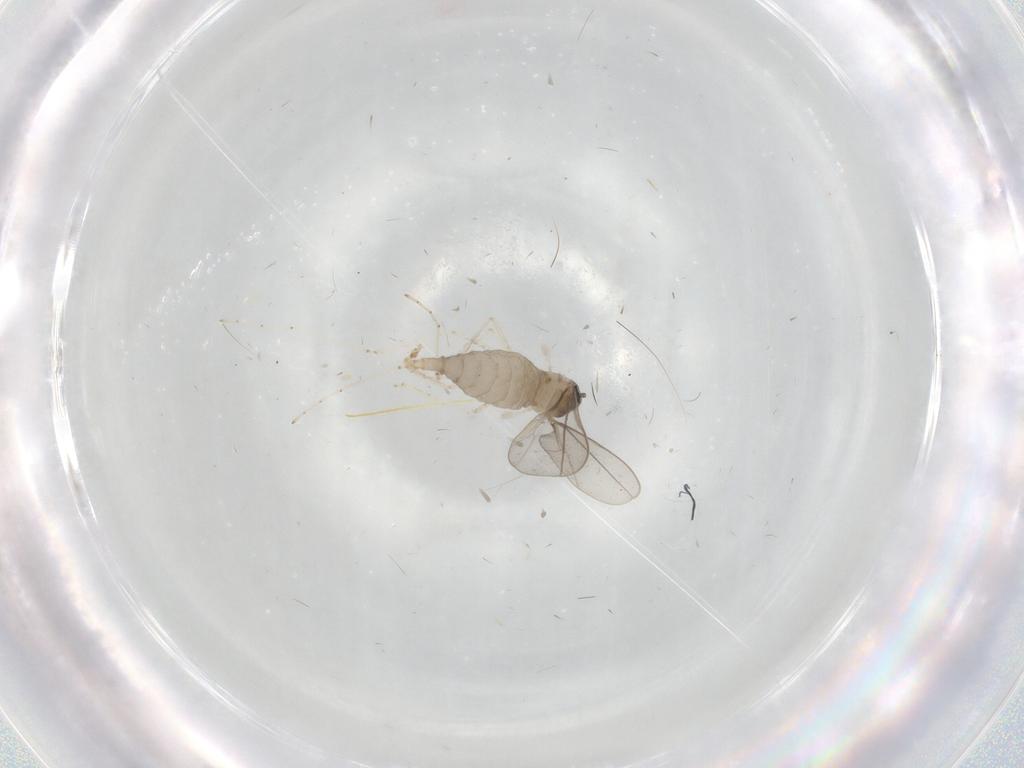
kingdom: Animalia
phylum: Arthropoda
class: Insecta
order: Diptera
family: Cecidomyiidae
